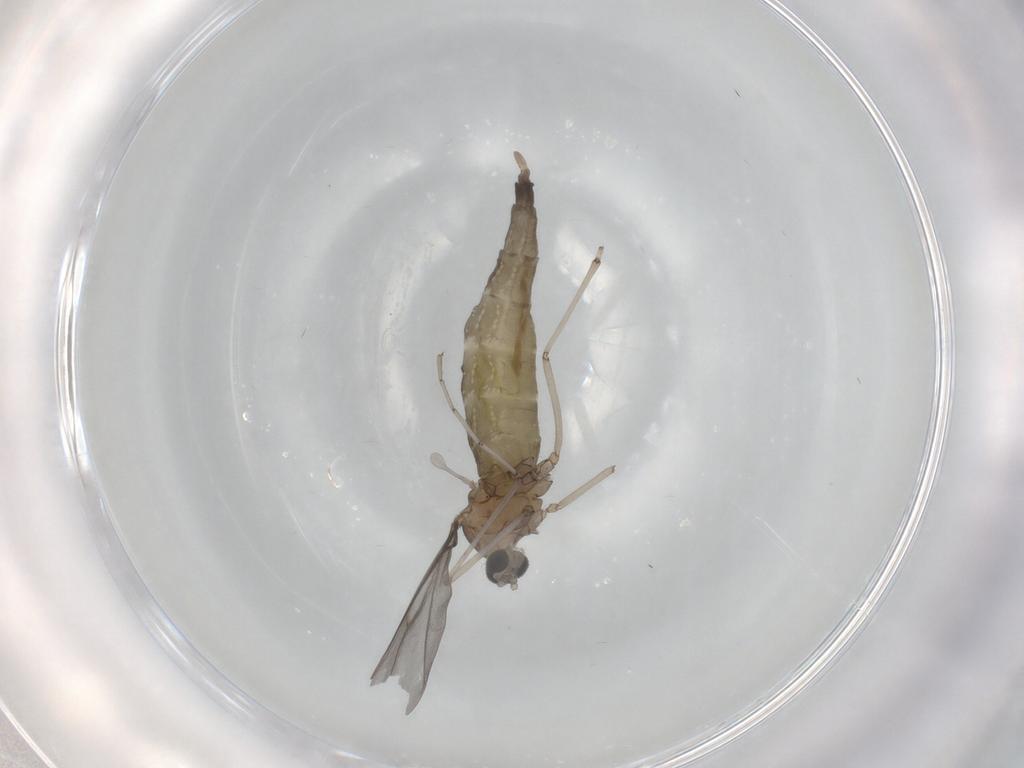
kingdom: Animalia
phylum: Arthropoda
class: Insecta
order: Diptera
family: Cecidomyiidae
